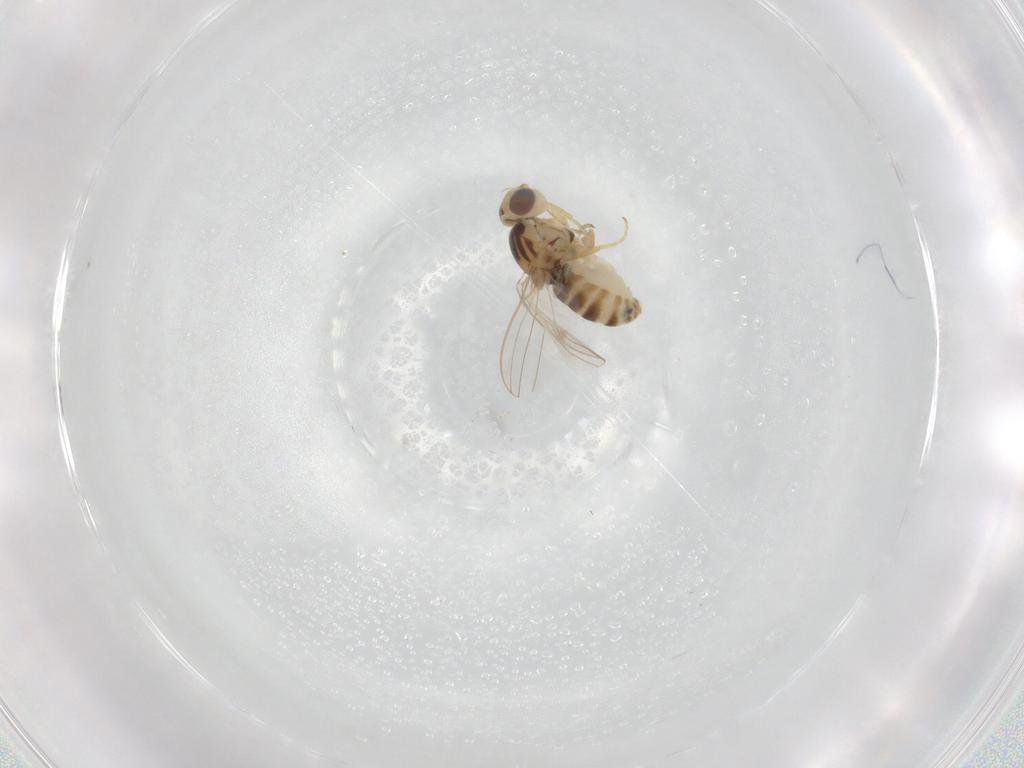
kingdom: Animalia
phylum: Arthropoda
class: Insecta
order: Diptera
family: Chyromyidae
